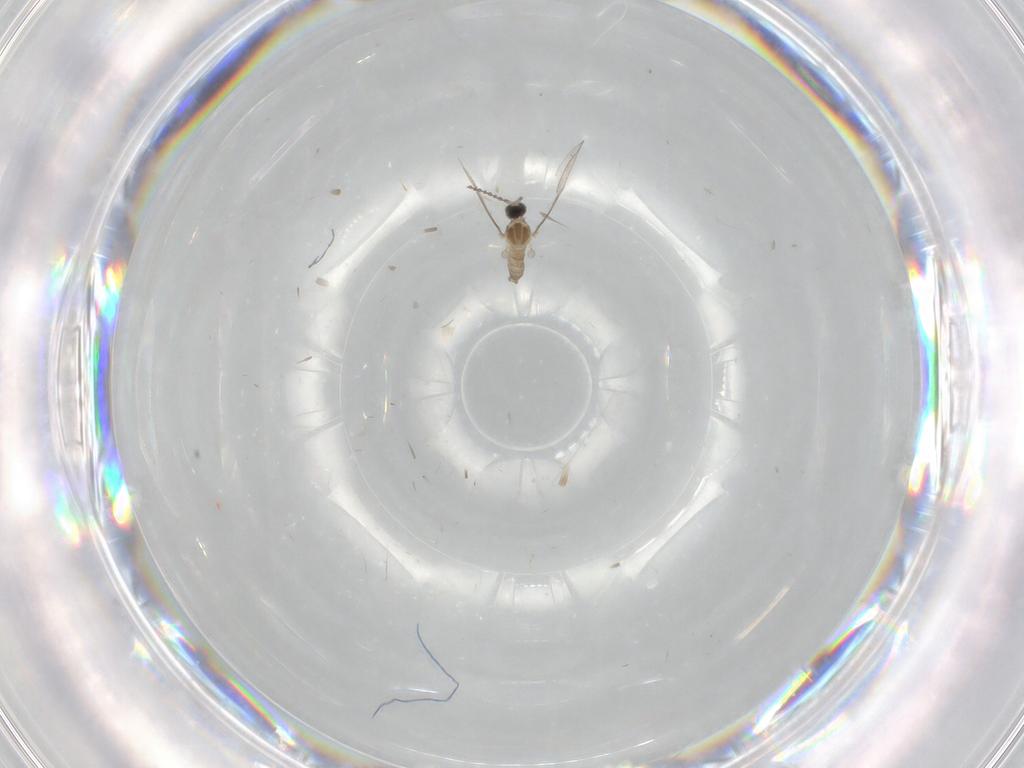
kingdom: Animalia
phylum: Arthropoda
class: Insecta
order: Diptera
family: Cecidomyiidae
